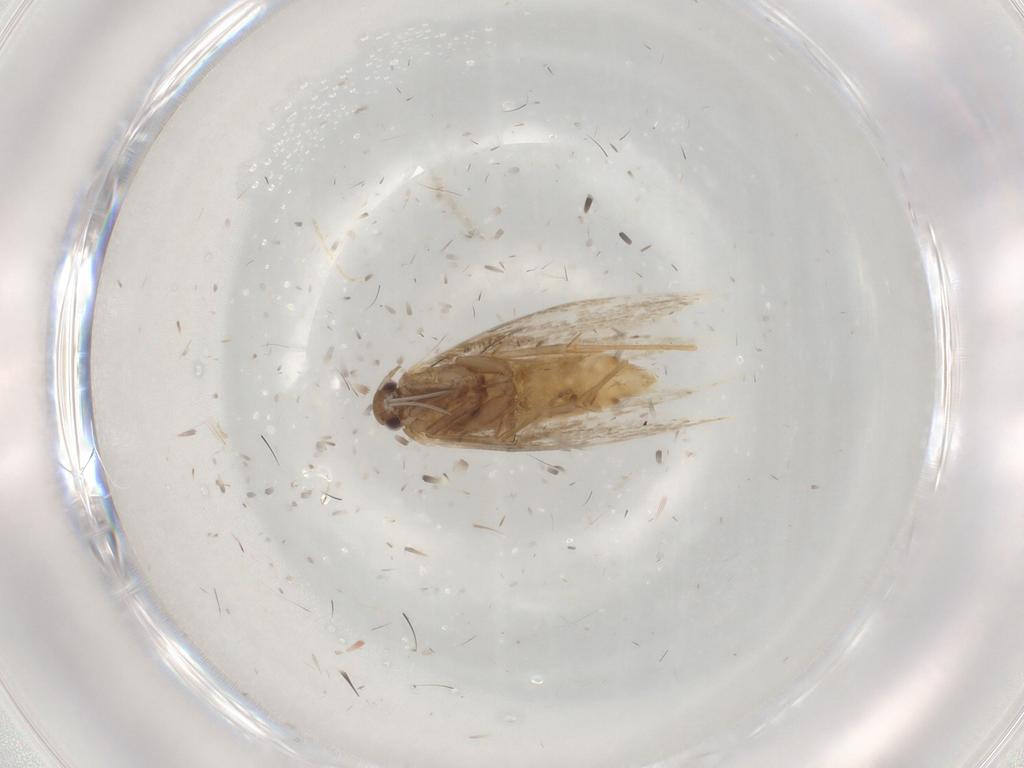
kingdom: Animalia
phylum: Arthropoda
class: Insecta
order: Lepidoptera
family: Gracillariidae
